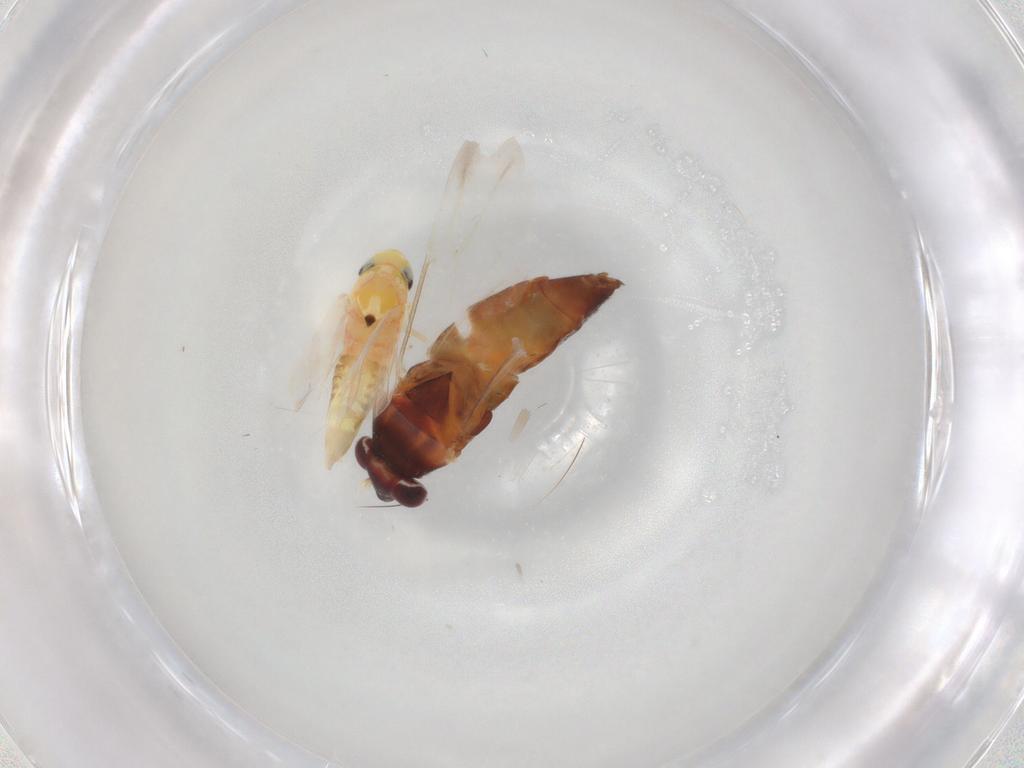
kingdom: Animalia
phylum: Arthropoda
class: Insecta
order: Hemiptera
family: Miridae
